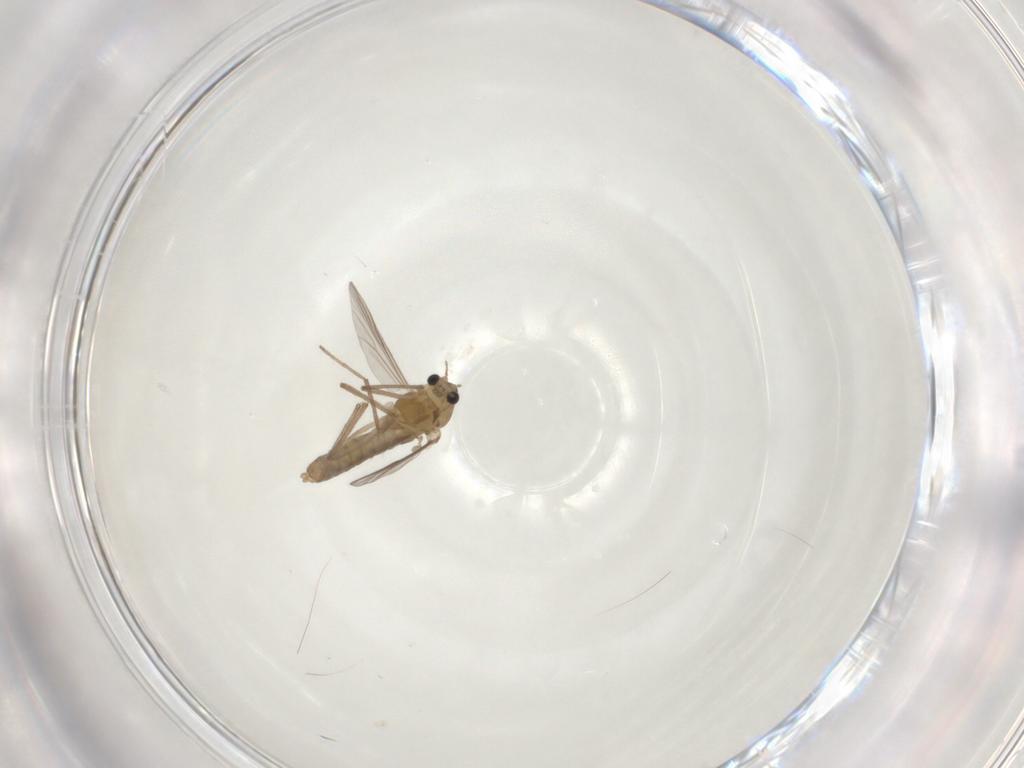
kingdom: Animalia
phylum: Arthropoda
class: Insecta
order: Diptera
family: Chironomidae
